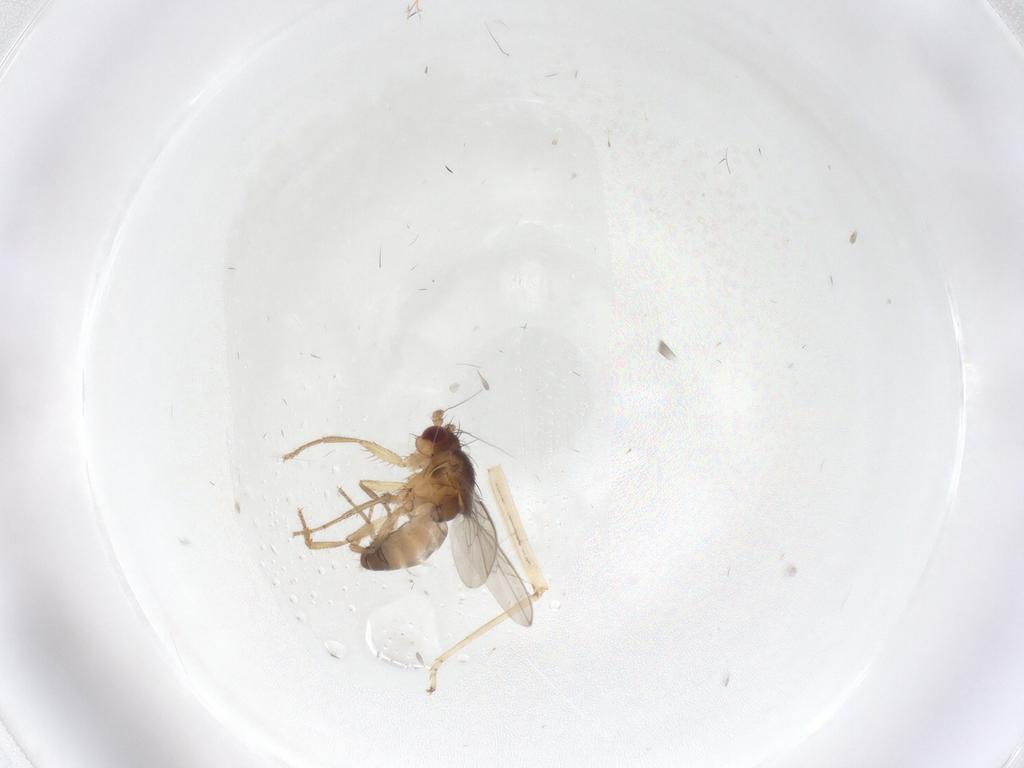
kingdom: Animalia
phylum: Arthropoda
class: Insecta
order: Diptera
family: Sphaeroceridae
